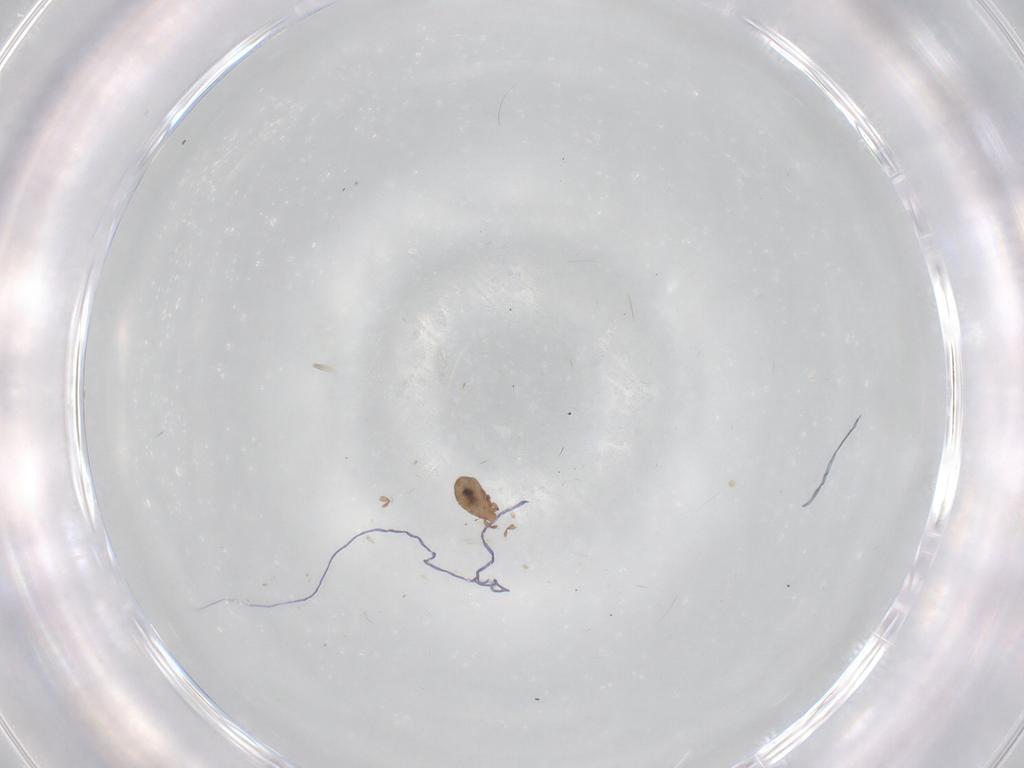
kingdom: Animalia
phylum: Arthropoda
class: Arachnida
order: Sarcoptiformes
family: Eremaeidae
